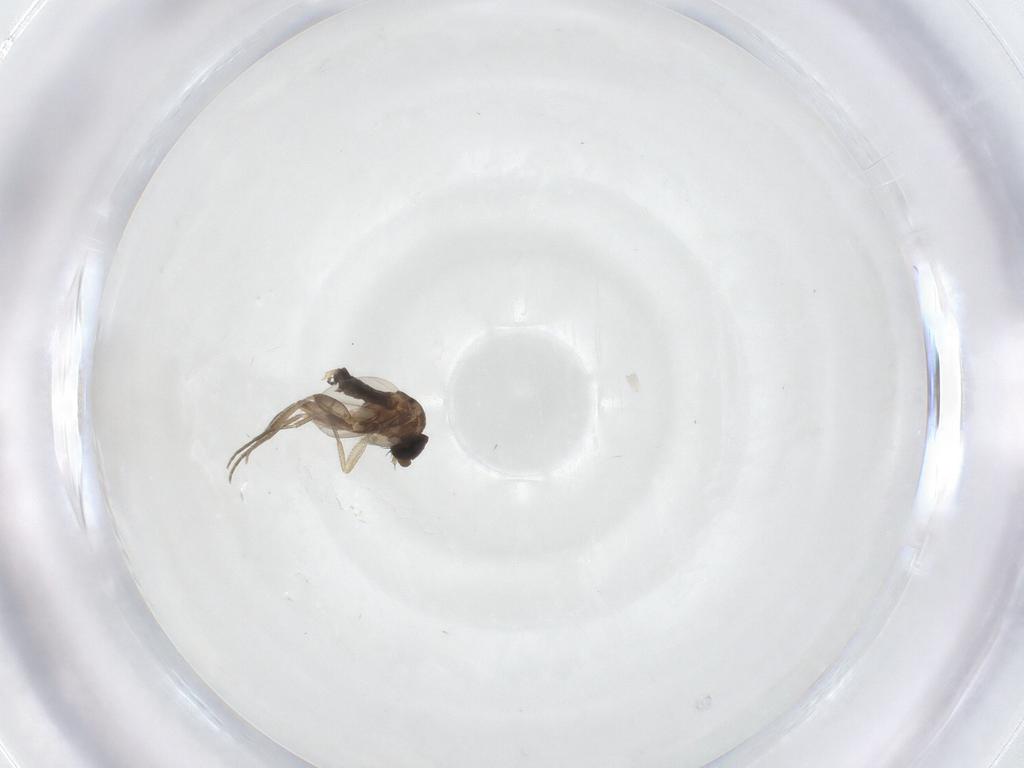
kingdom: Animalia
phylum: Arthropoda
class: Insecta
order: Diptera
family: Phoridae
